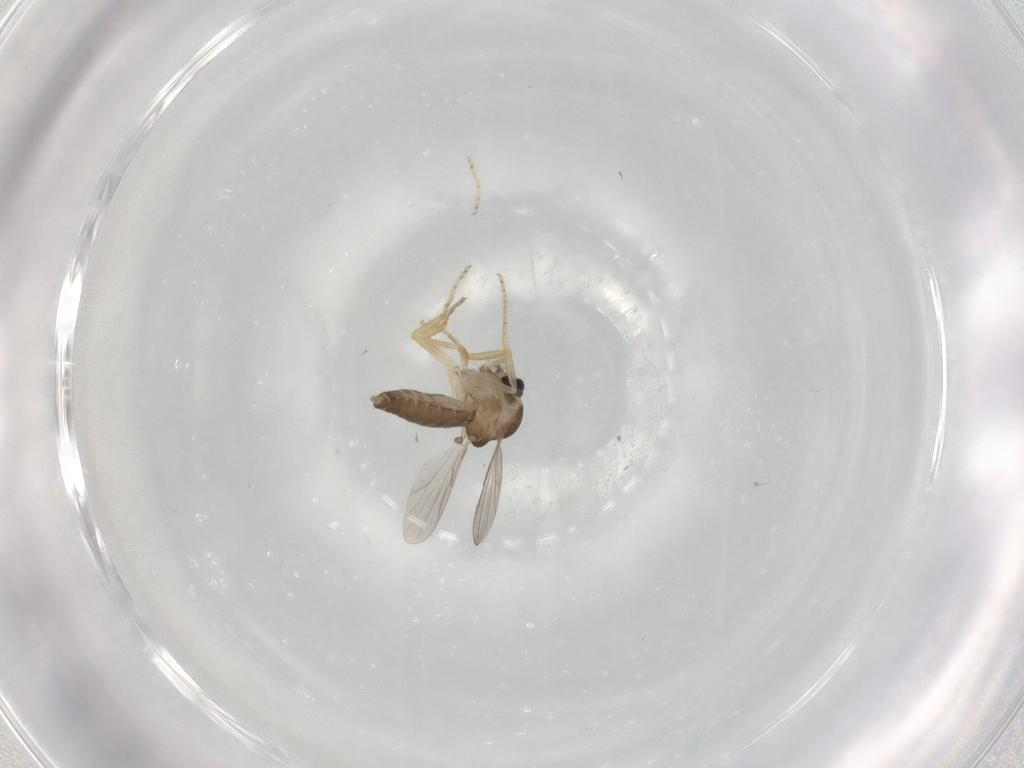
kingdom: Animalia
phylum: Arthropoda
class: Insecta
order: Diptera
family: Ceratopogonidae
